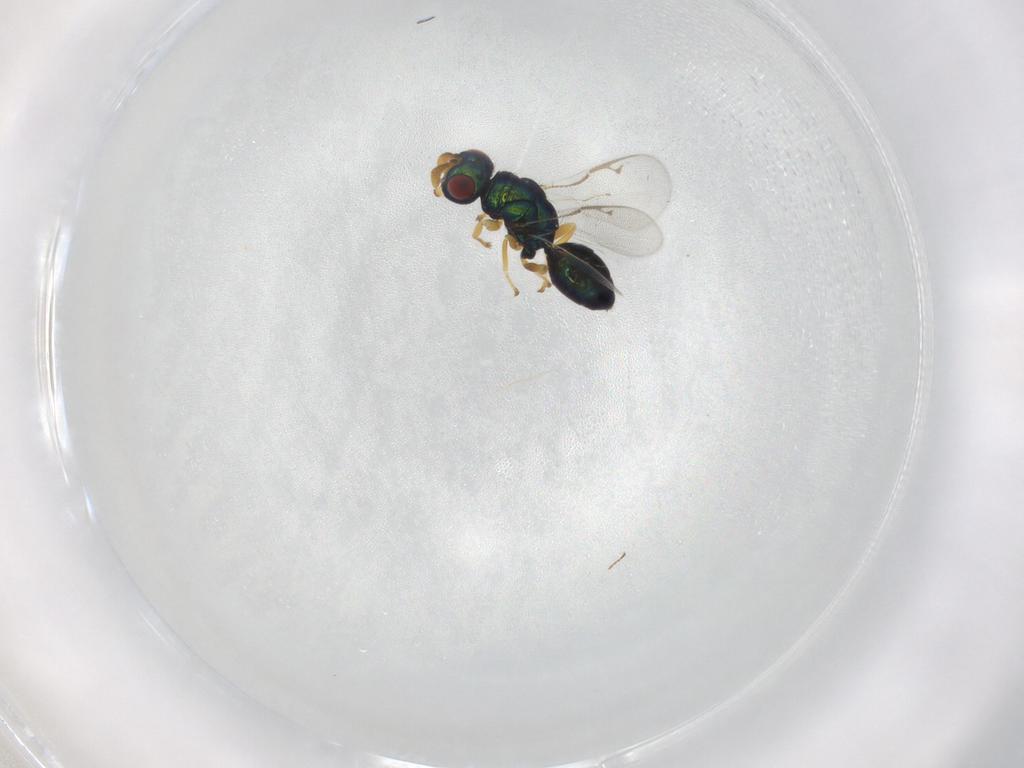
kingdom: Animalia
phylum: Arthropoda
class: Insecta
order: Hymenoptera
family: Pteromalidae
